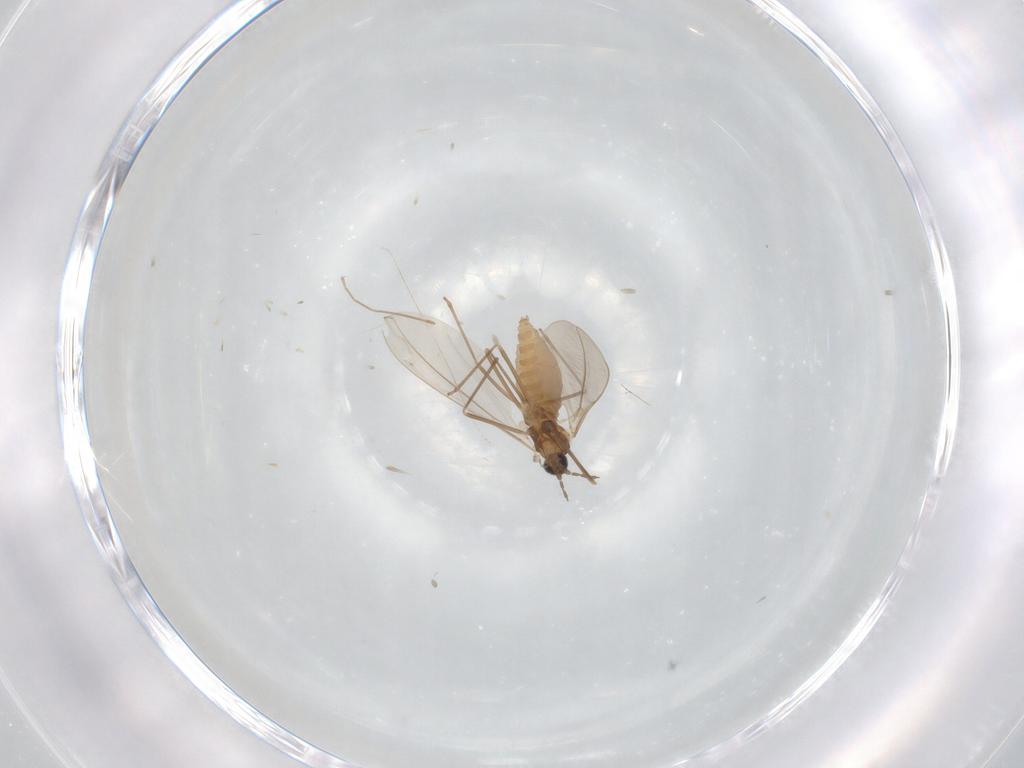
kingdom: Animalia
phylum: Arthropoda
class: Insecta
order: Diptera
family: Cecidomyiidae
